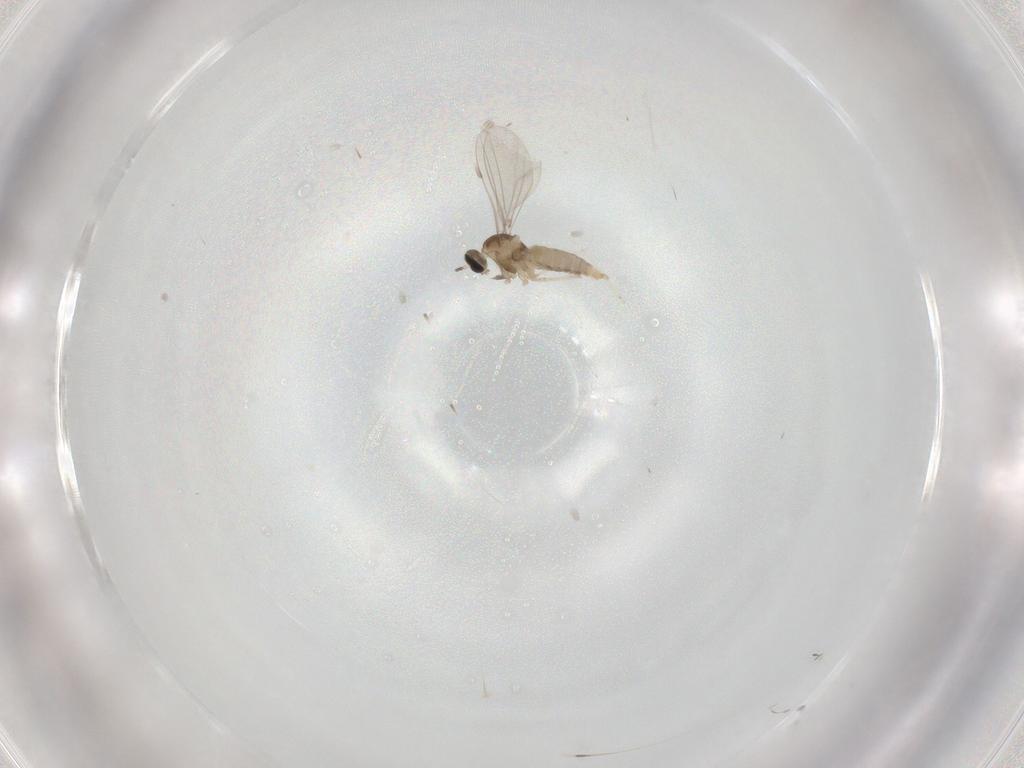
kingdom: Animalia
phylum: Arthropoda
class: Insecta
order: Diptera
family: Cecidomyiidae
